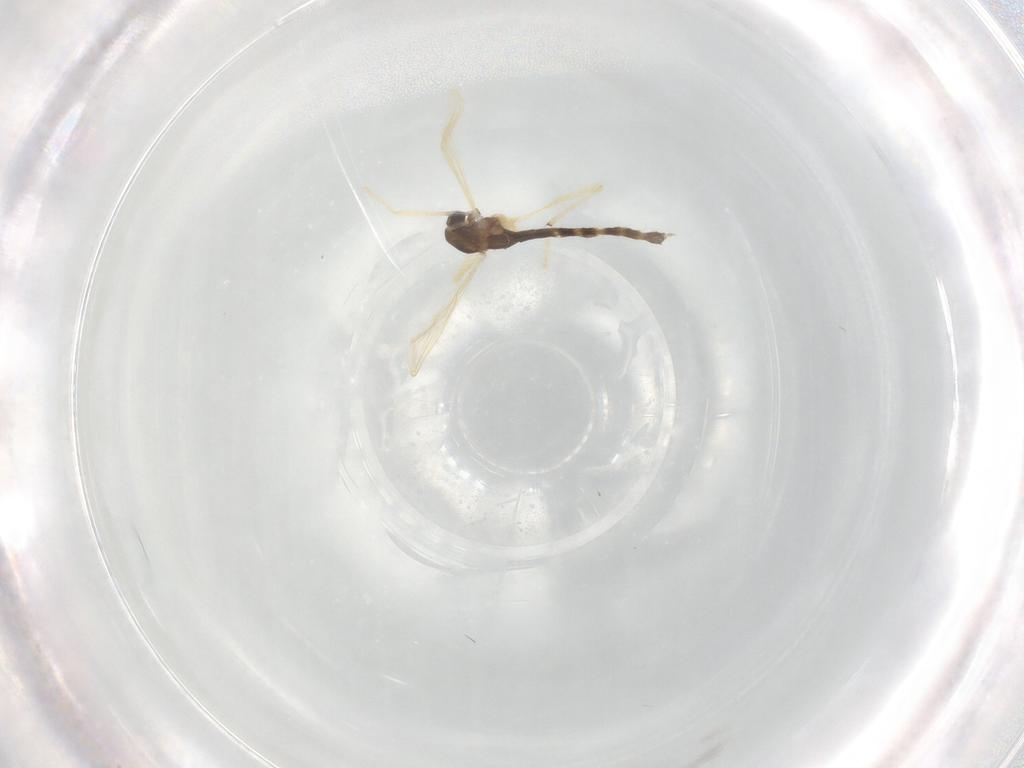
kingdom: Animalia
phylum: Arthropoda
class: Insecta
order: Diptera
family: Chironomidae
